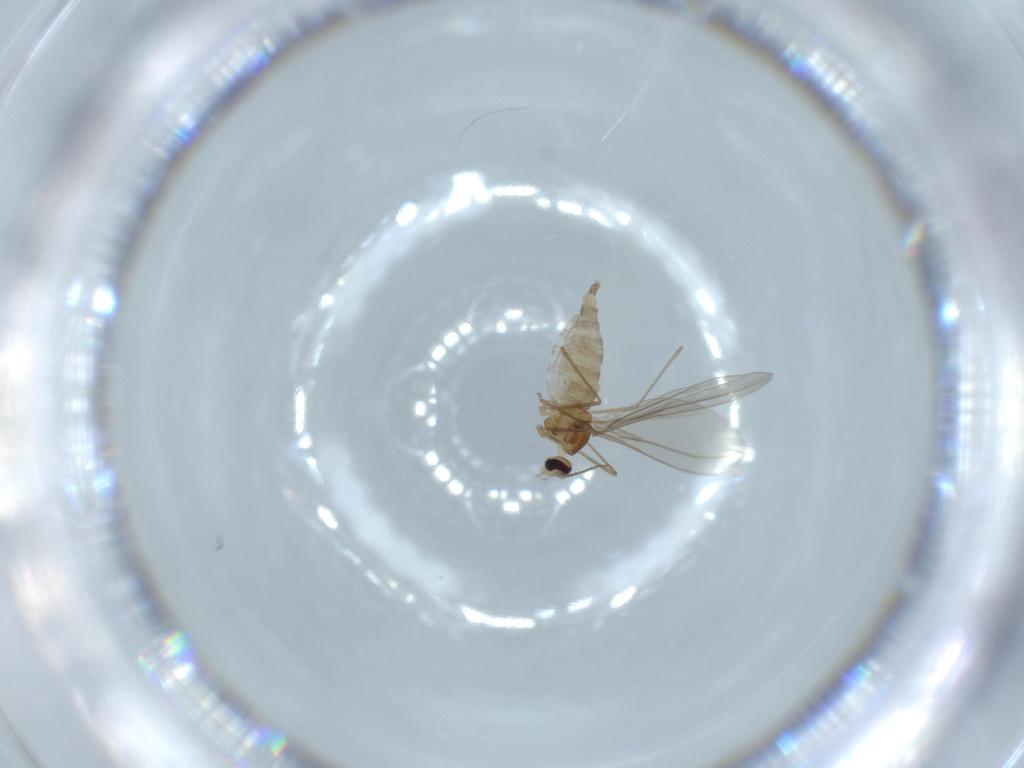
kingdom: Animalia
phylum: Arthropoda
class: Insecta
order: Diptera
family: Cecidomyiidae
